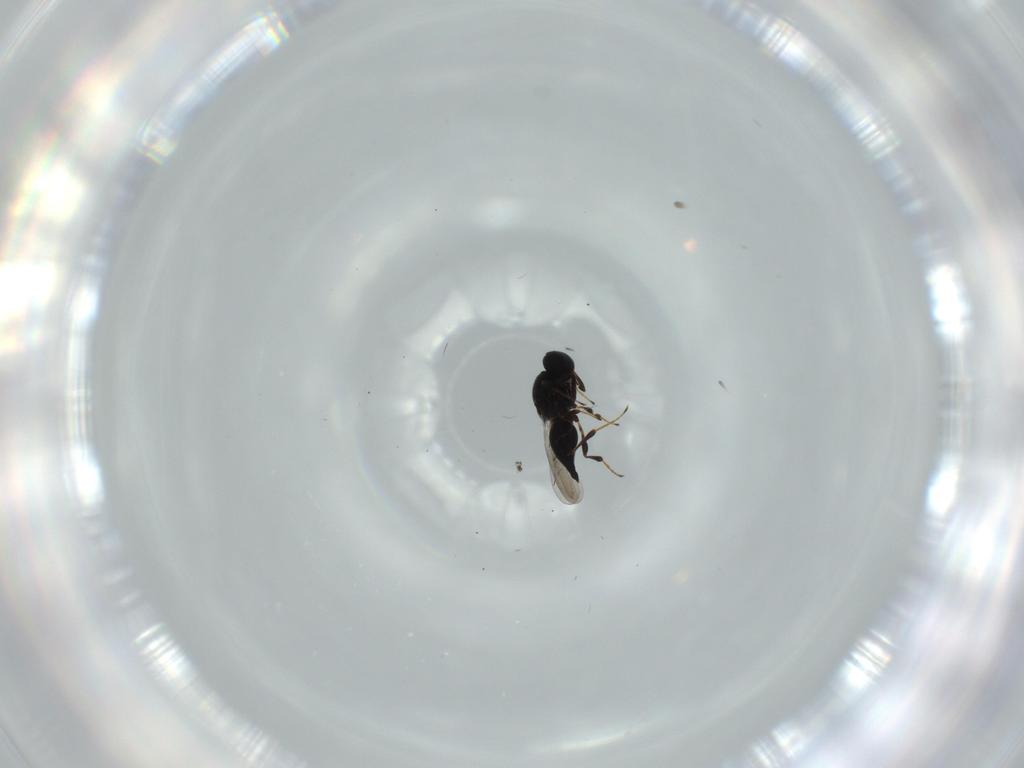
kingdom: Animalia
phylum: Arthropoda
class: Insecta
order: Hymenoptera
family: Platygastridae
